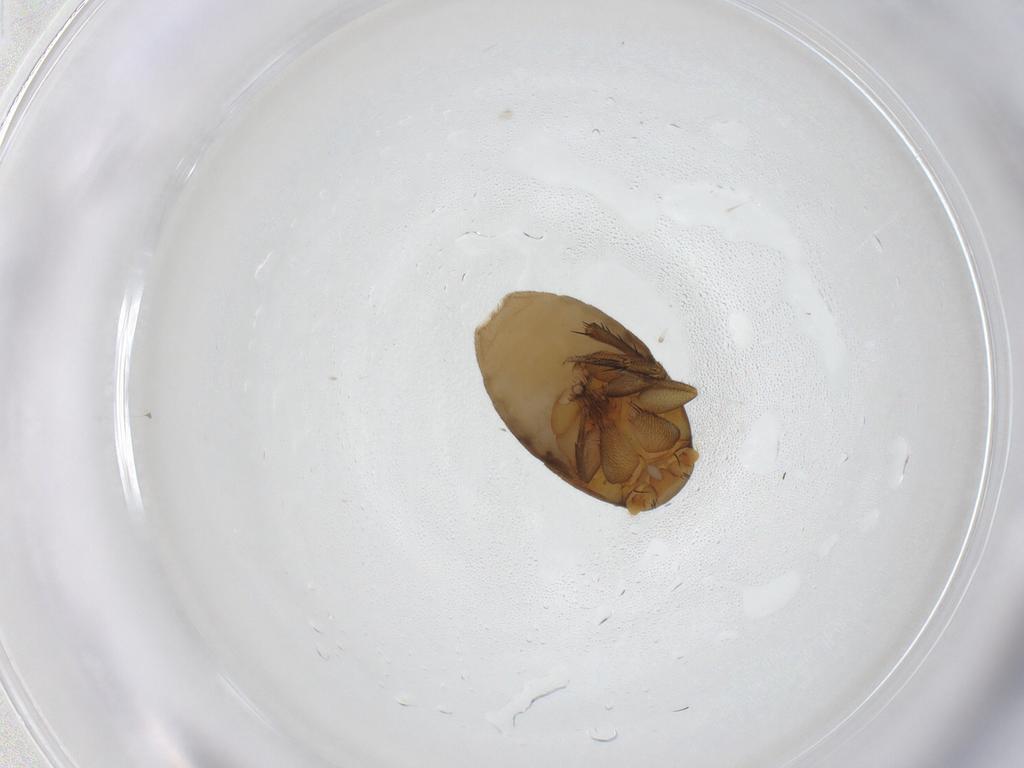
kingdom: Animalia
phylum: Arthropoda
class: Insecta
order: Diptera
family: Phoridae
